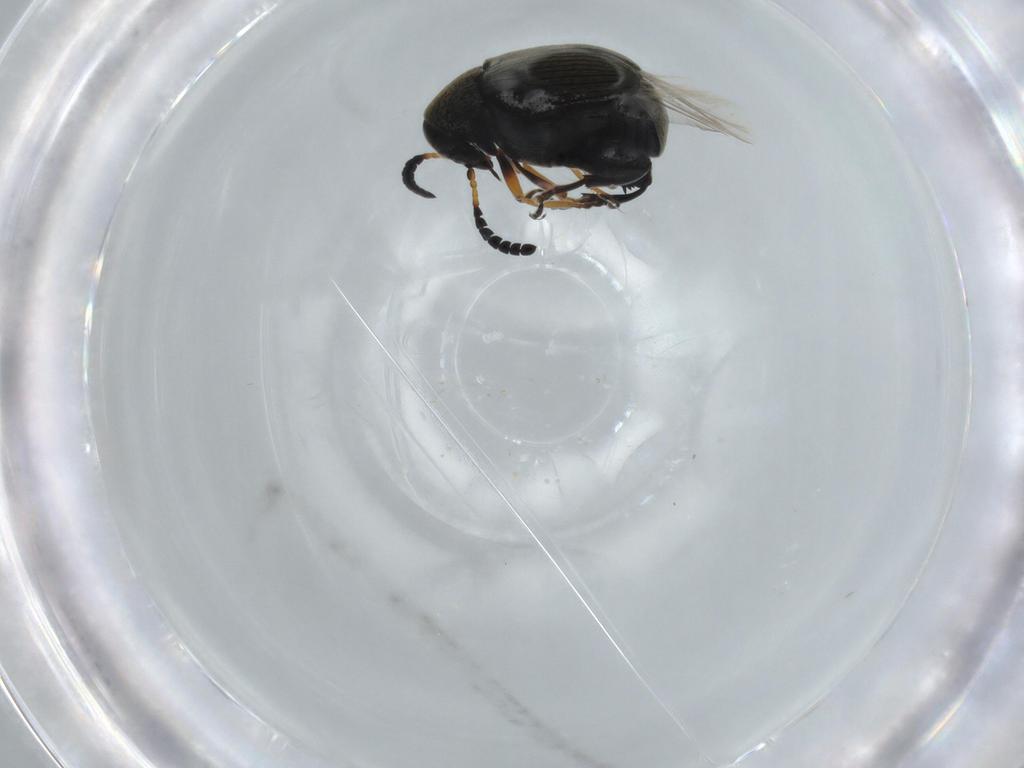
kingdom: Animalia
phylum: Arthropoda
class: Insecta
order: Coleoptera
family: Chrysomelidae
